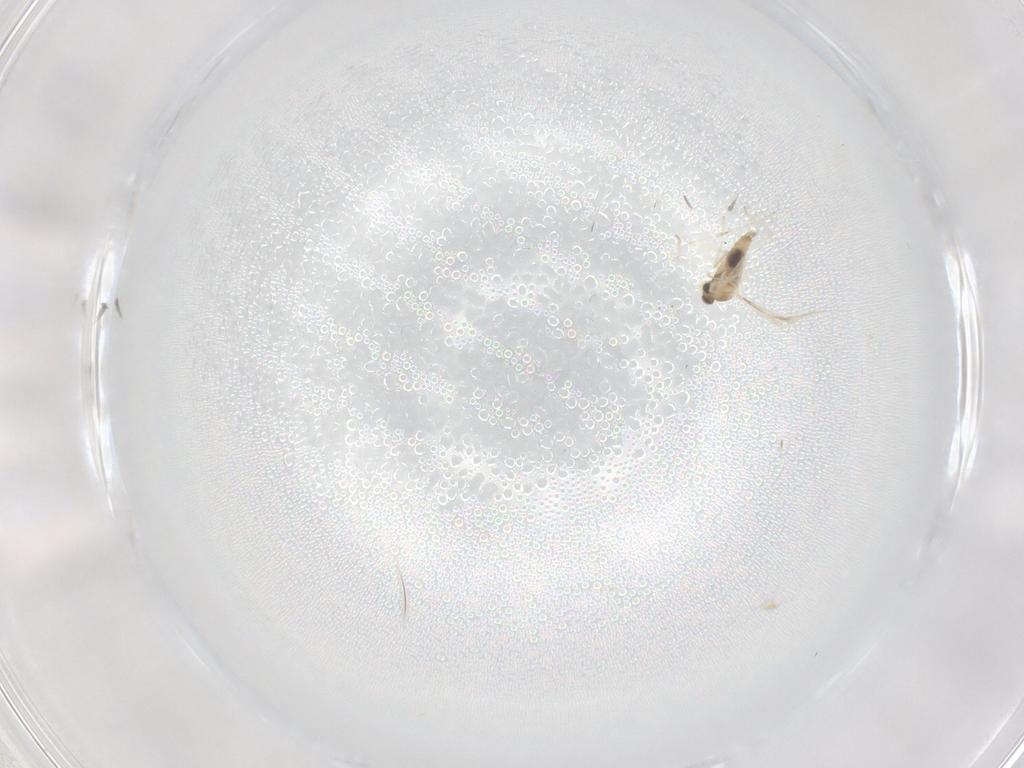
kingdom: Animalia
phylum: Arthropoda
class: Insecta
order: Diptera
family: Cecidomyiidae
